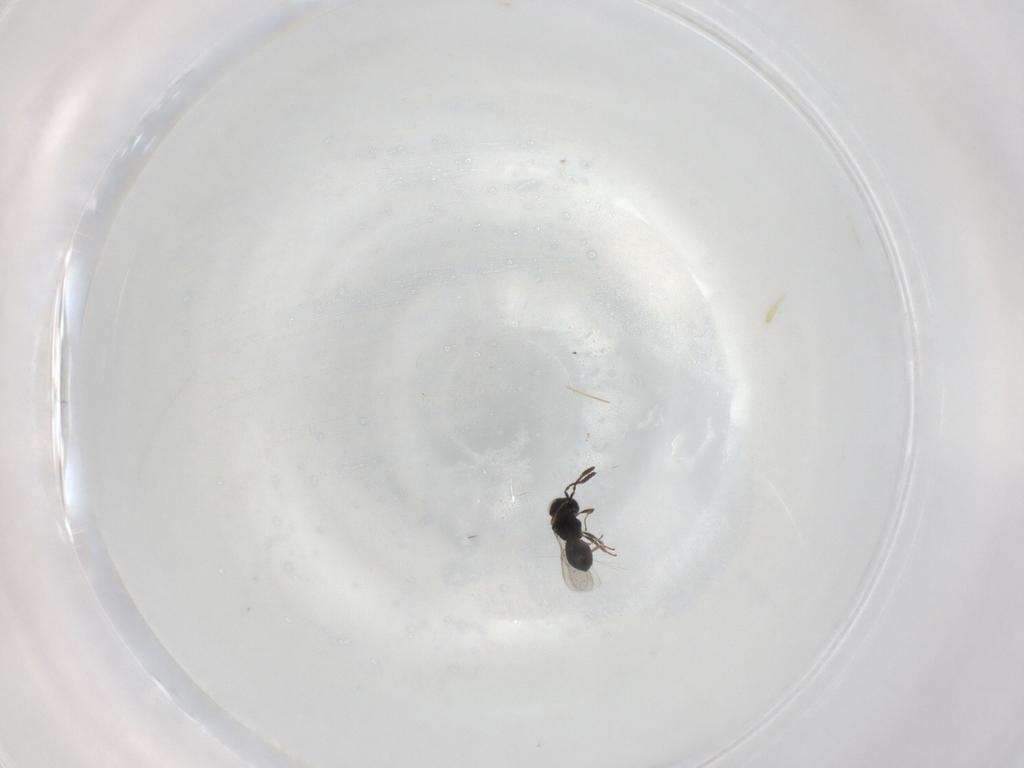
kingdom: Animalia
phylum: Arthropoda
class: Insecta
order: Hymenoptera
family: Scelionidae
